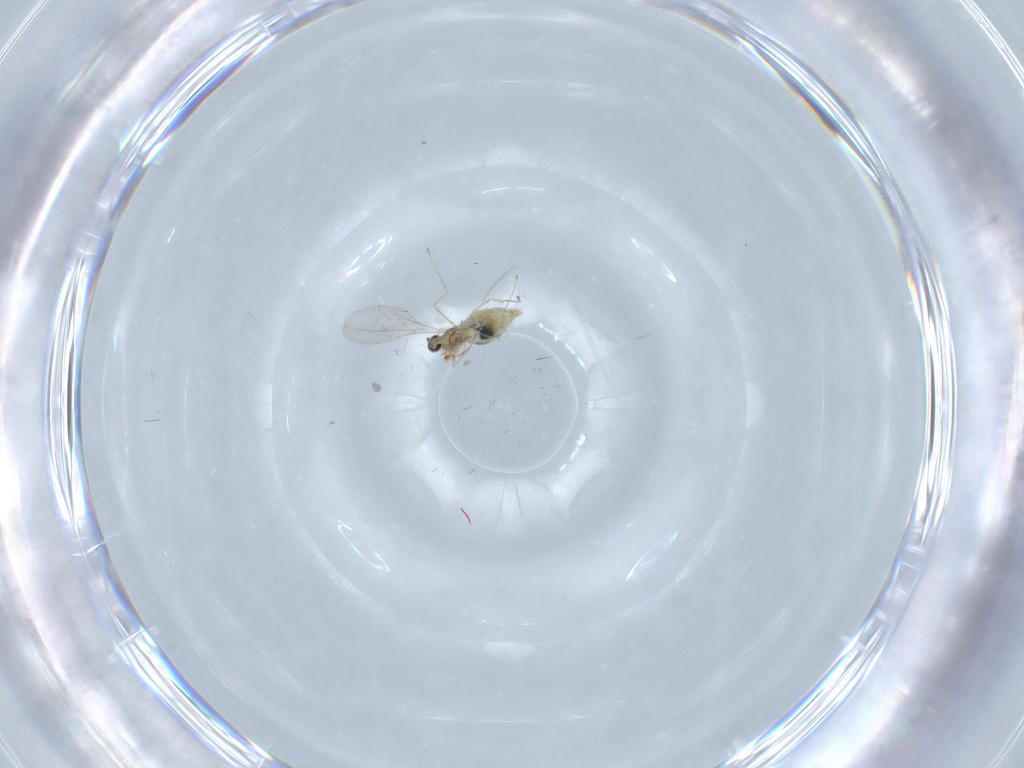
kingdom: Animalia
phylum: Arthropoda
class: Insecta
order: Diptera
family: Cecidomyiidae
